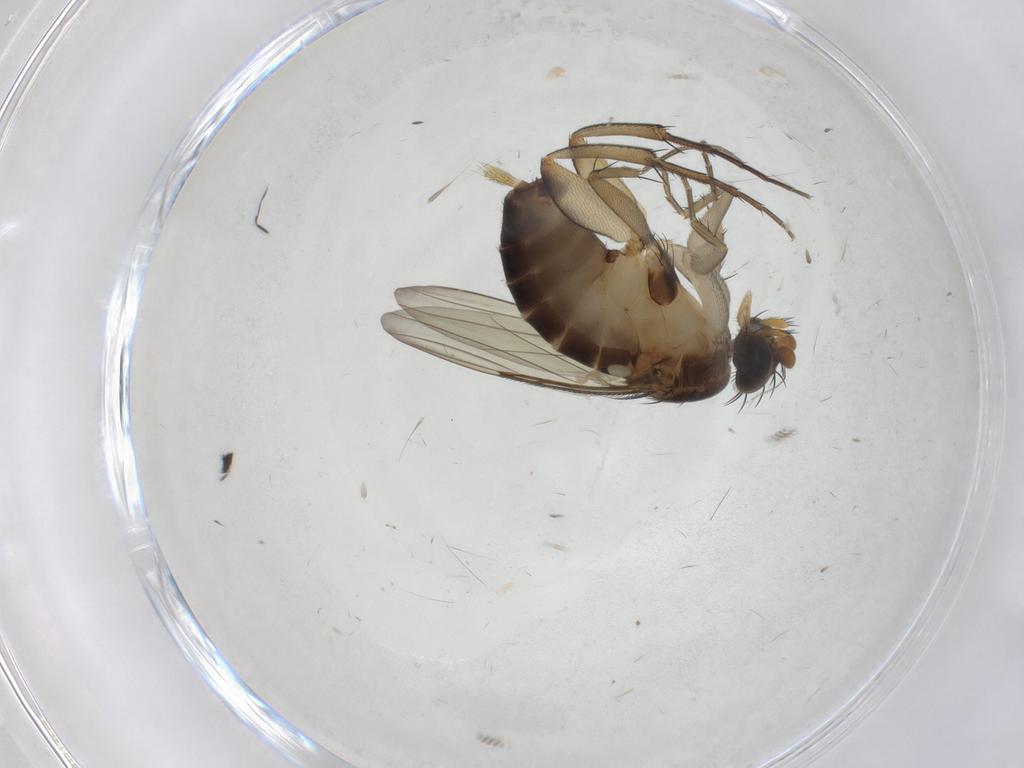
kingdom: Animalia
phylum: Arthropoda
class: Insecta
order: Diptera
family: Phoridae
